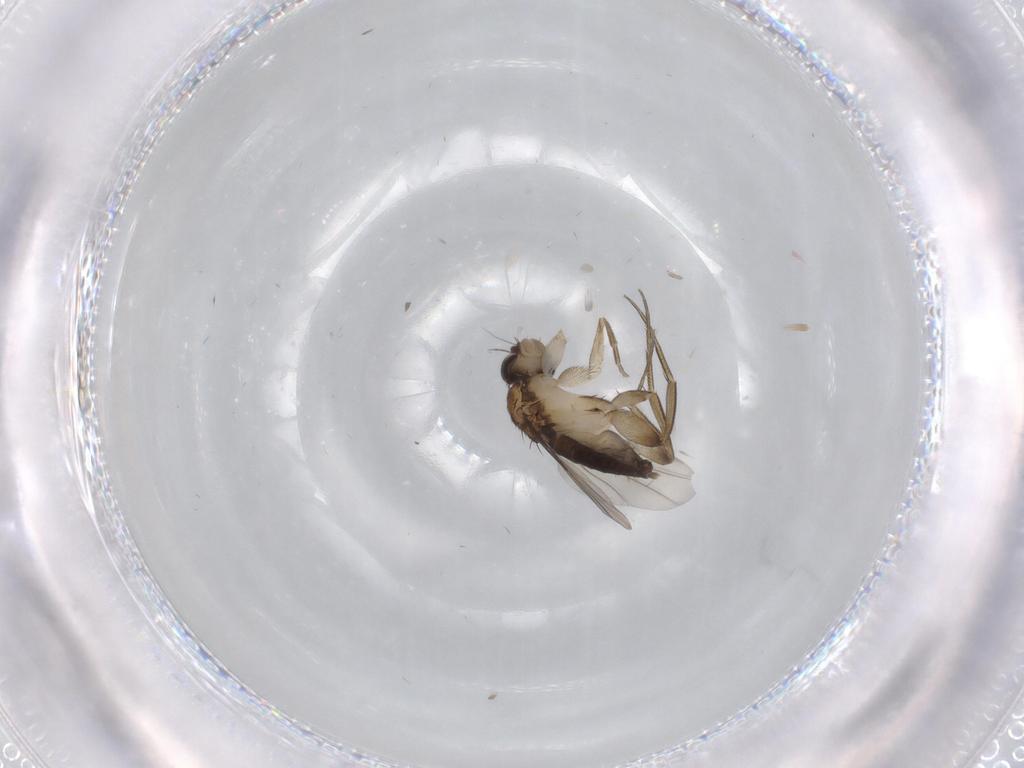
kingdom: Animalia
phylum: Arthropoda
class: Insecta
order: Diptera
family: Phoridae
